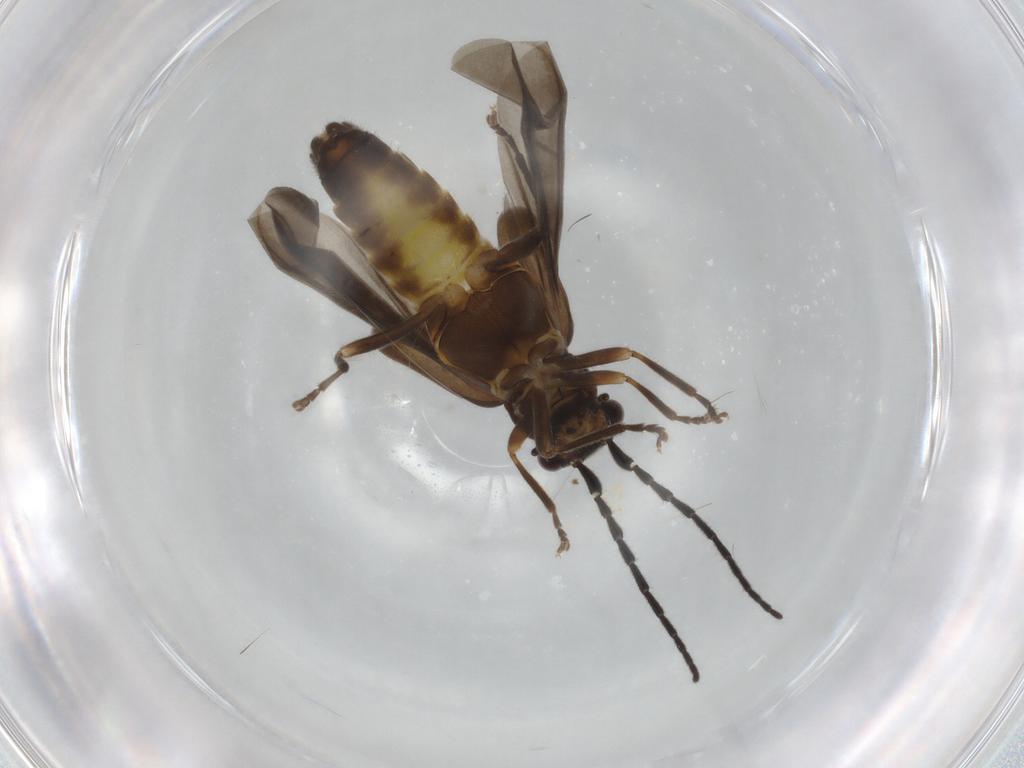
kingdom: Animalia
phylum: Arthropoda
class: Insecta
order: Coleoptera
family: Cantharidae
